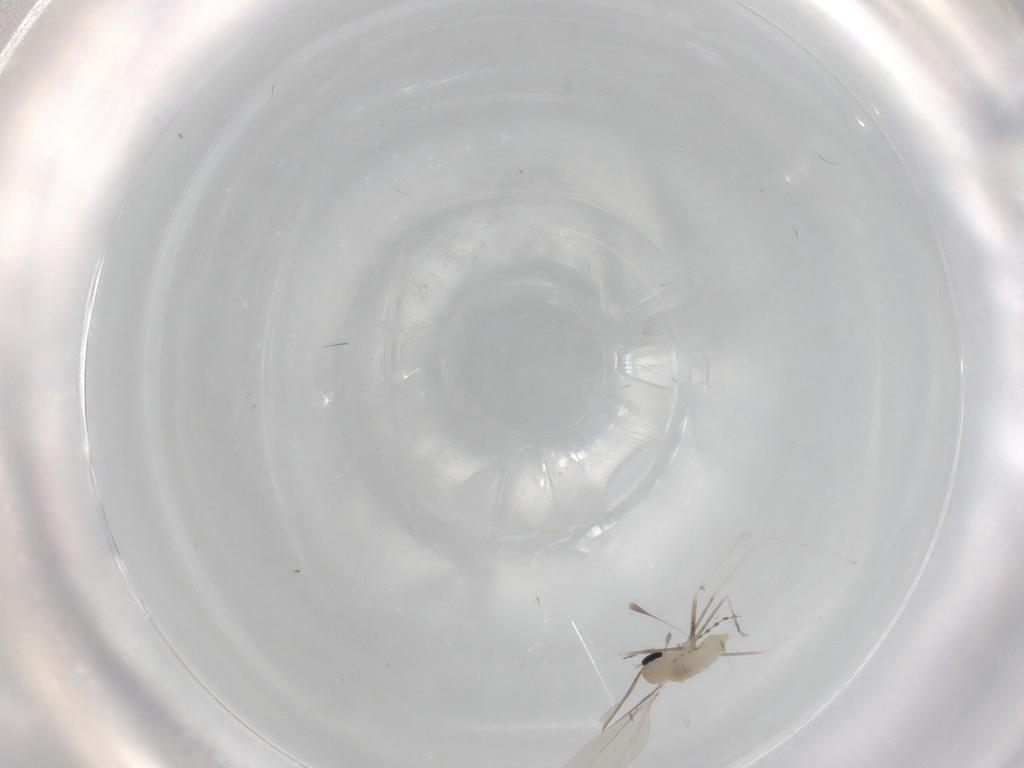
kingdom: Animalia
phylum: Arthropoda
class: Insecta
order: Diptera
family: Cecidomyiidae
